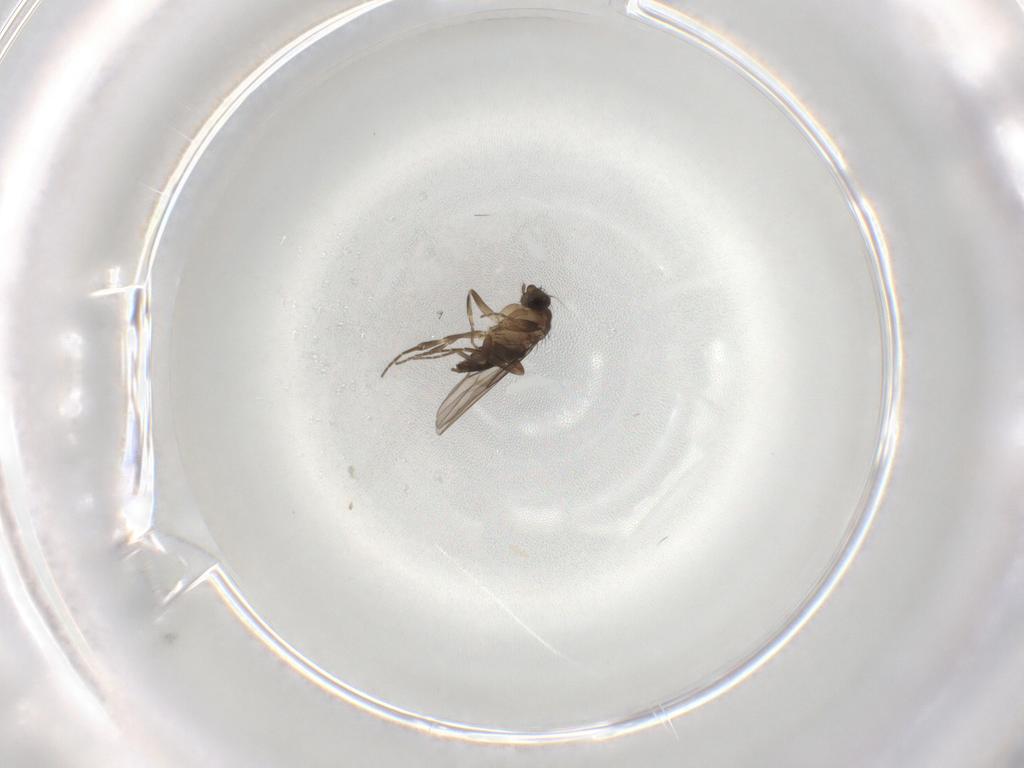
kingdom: Animalia
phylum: Arthropoda
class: Insecta
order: Diptera
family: Phoridae
